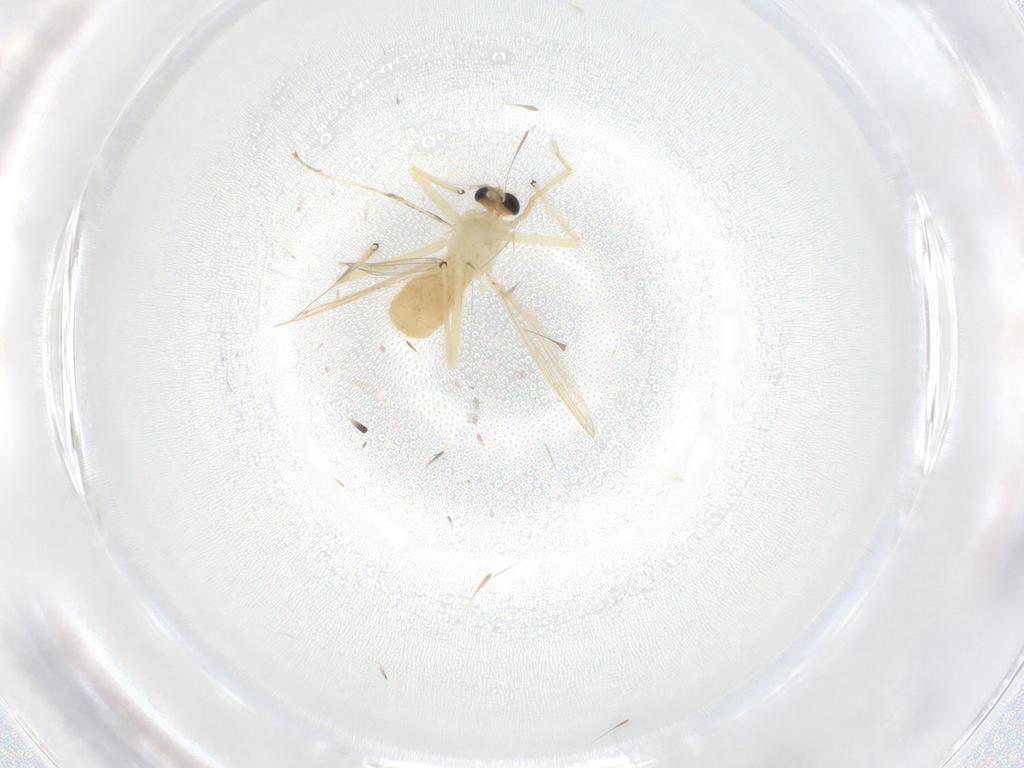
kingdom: Animalia
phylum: Arthropoda
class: Insecta
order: Diptera
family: Chironomidae
